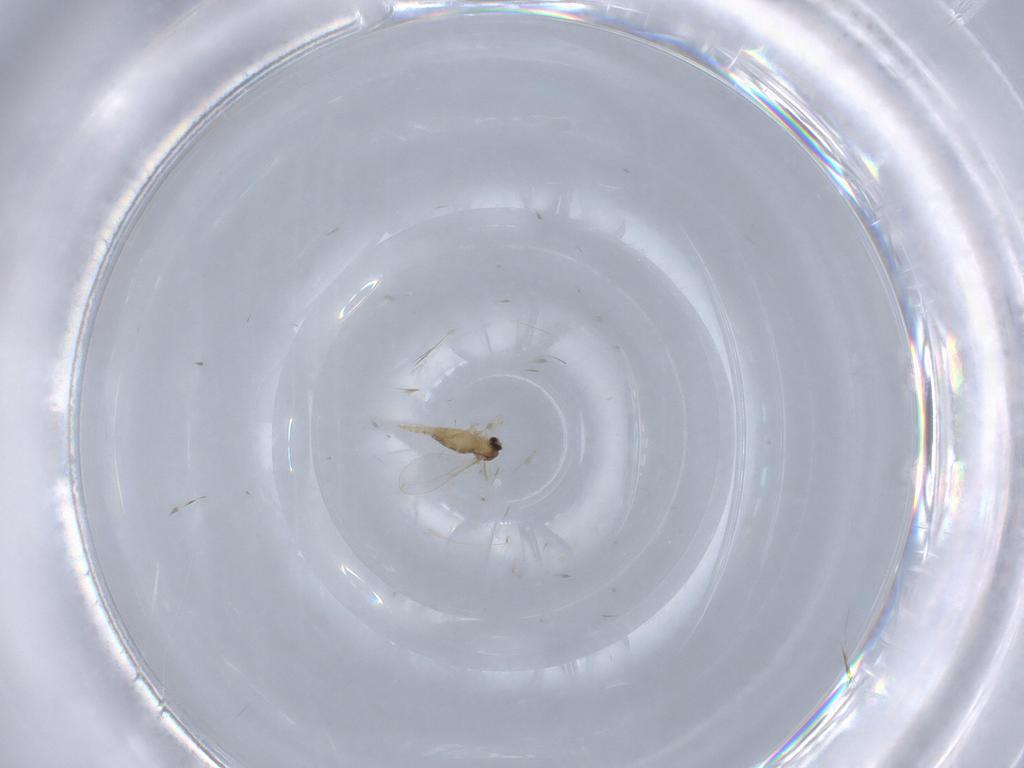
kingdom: Animalia
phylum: Arthropoda
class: Insecta
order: Diptera
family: Cecidomyiidae
